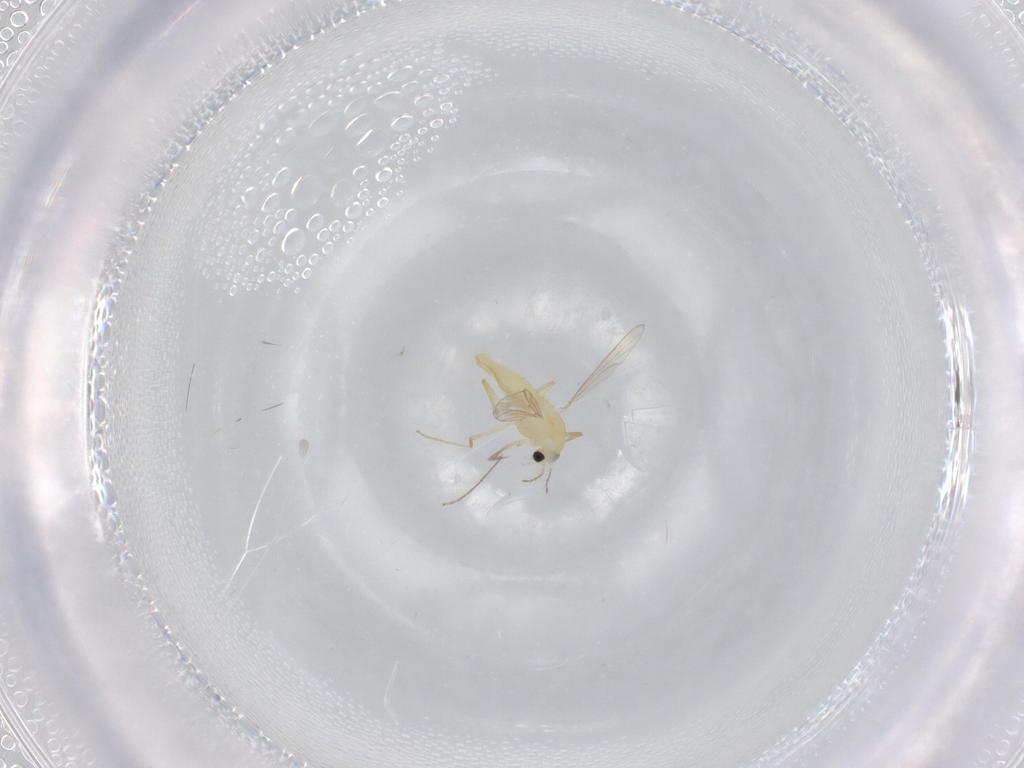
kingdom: Animalia
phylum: Arthropoda
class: Insecta
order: Diptera
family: Chironomidae
